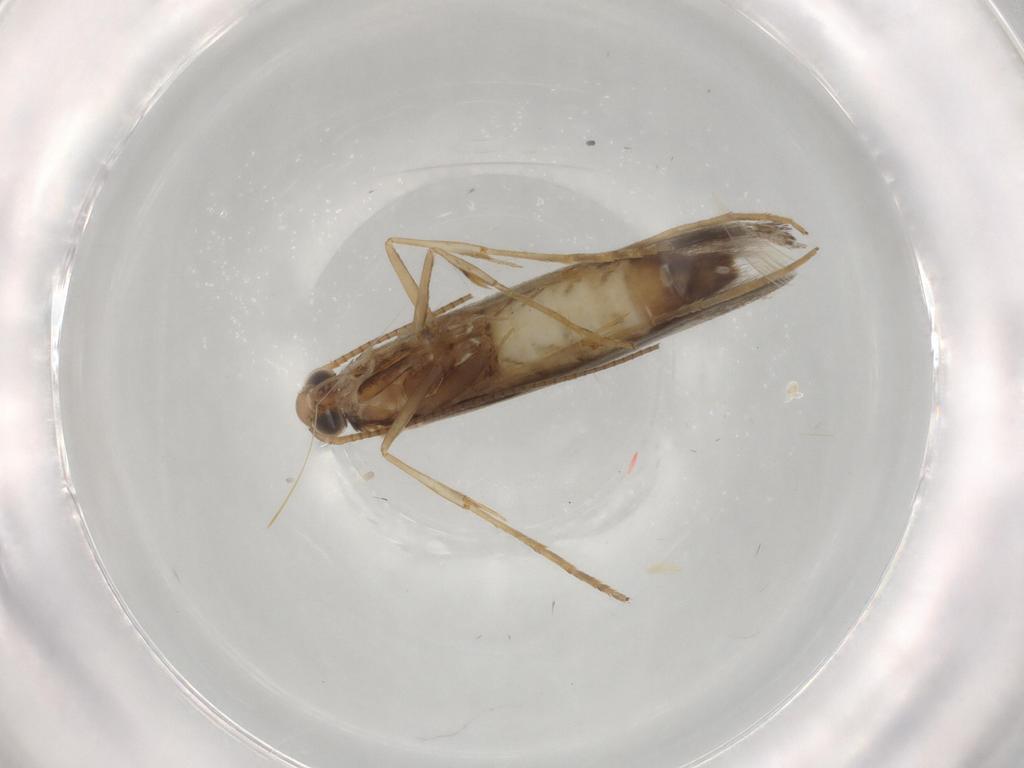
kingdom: Animalia
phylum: Arthropoda
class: Insecta
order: Lepidoptera
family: Gracillariidae
